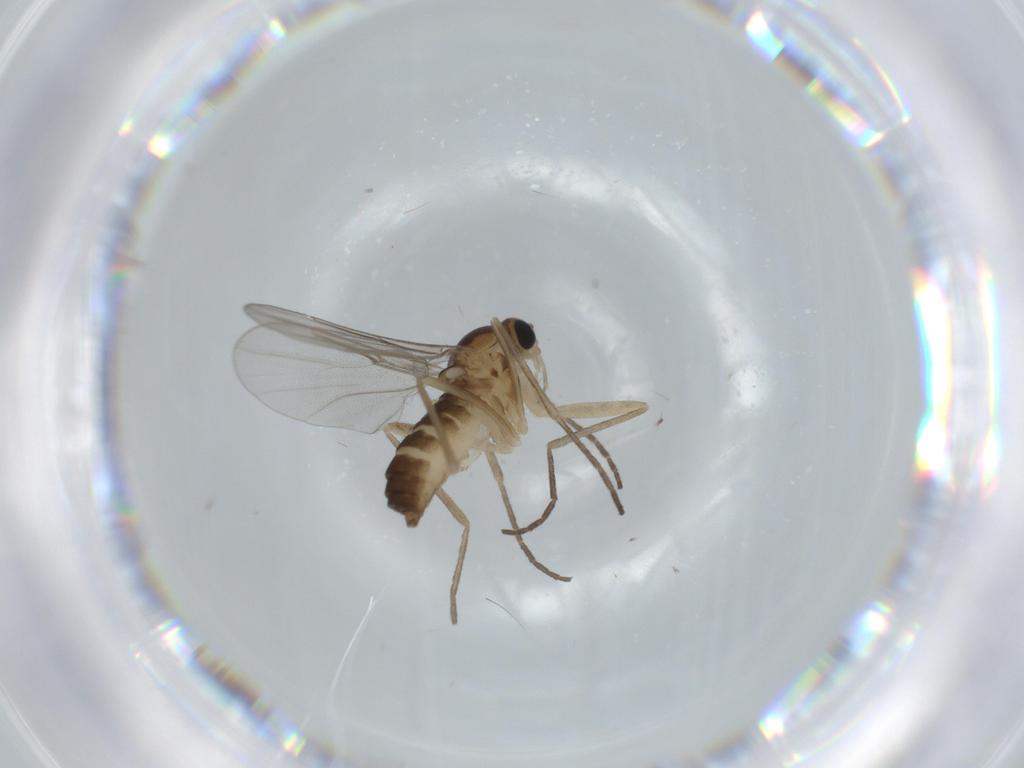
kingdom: Animalia
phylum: Arthropoda
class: Insecta
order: Diptera
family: Cecidomyiidae
